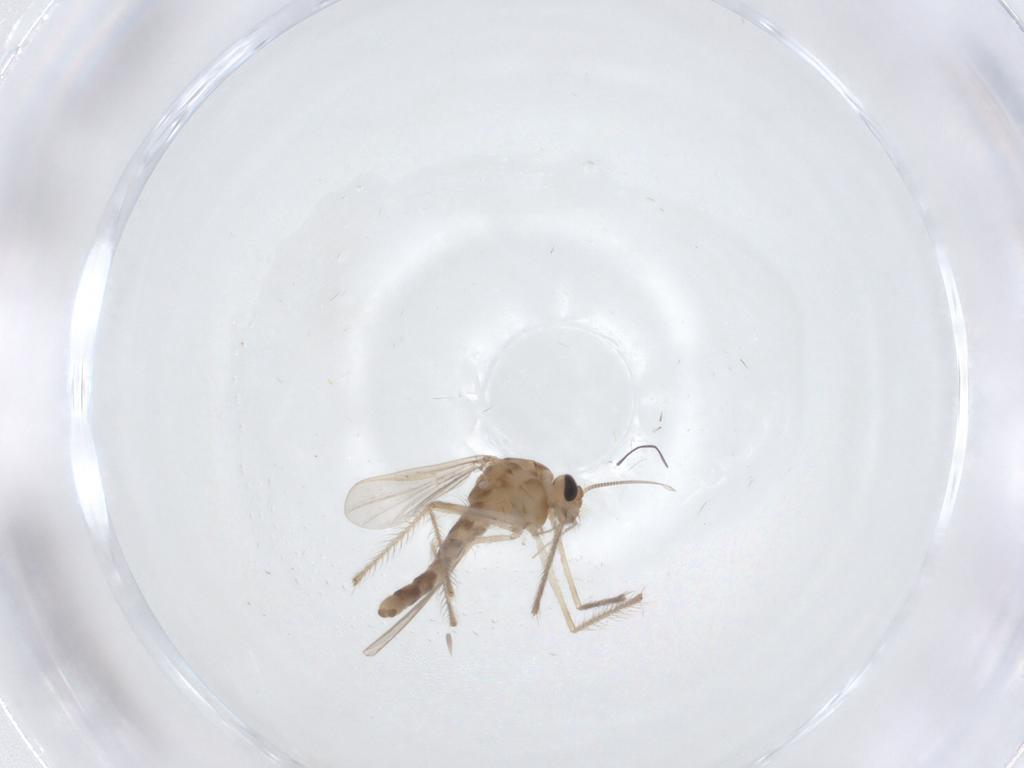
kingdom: Animalia
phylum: Arthropoda
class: Insecta
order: Diptera
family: Chironomidae
